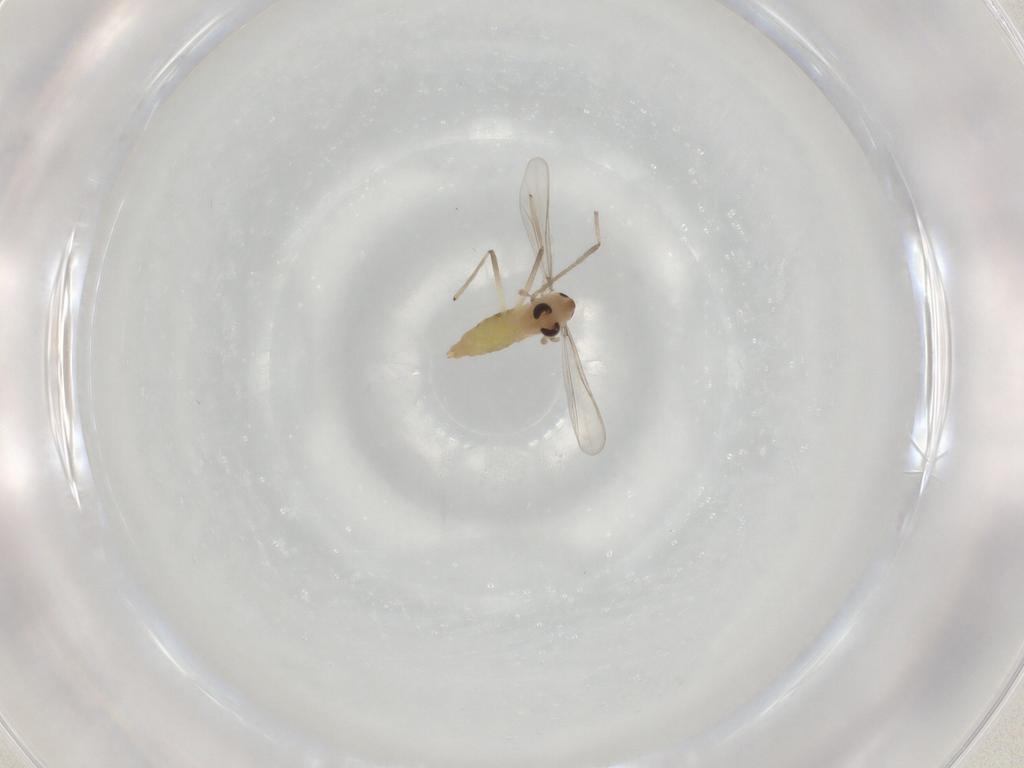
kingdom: Animalia
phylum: Arthropoda
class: Insecta
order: Diptera
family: Chironomidae
